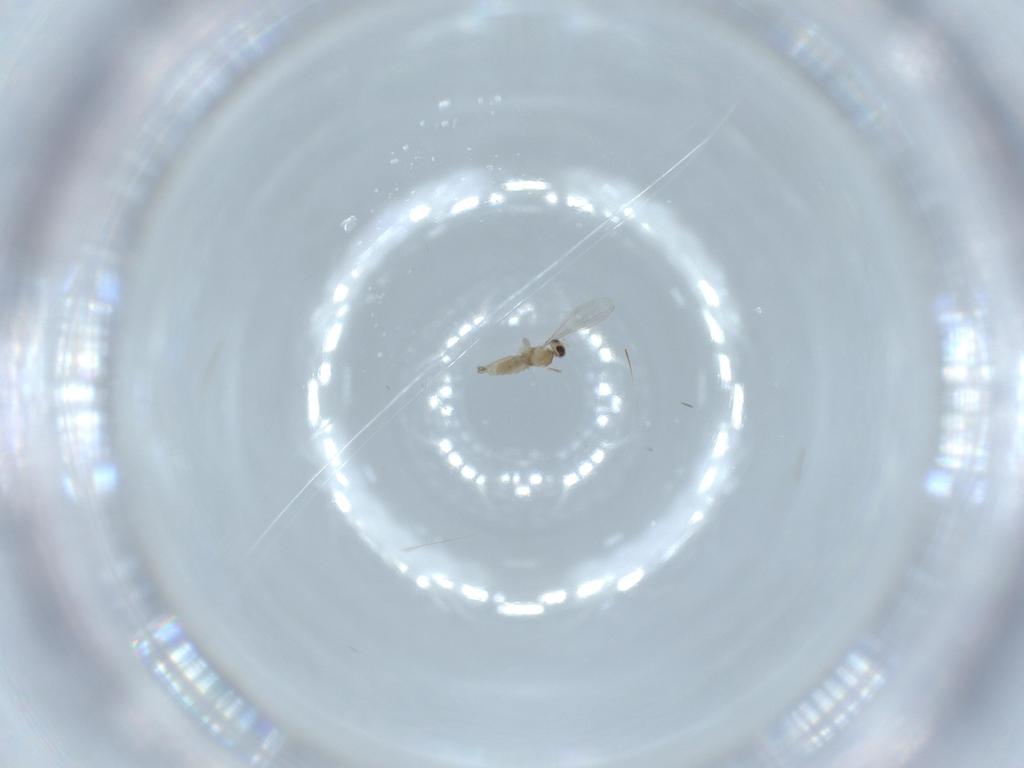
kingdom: Animalia
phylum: Arthropoda
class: Insecta
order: Diptera
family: Cecidomyiidae
